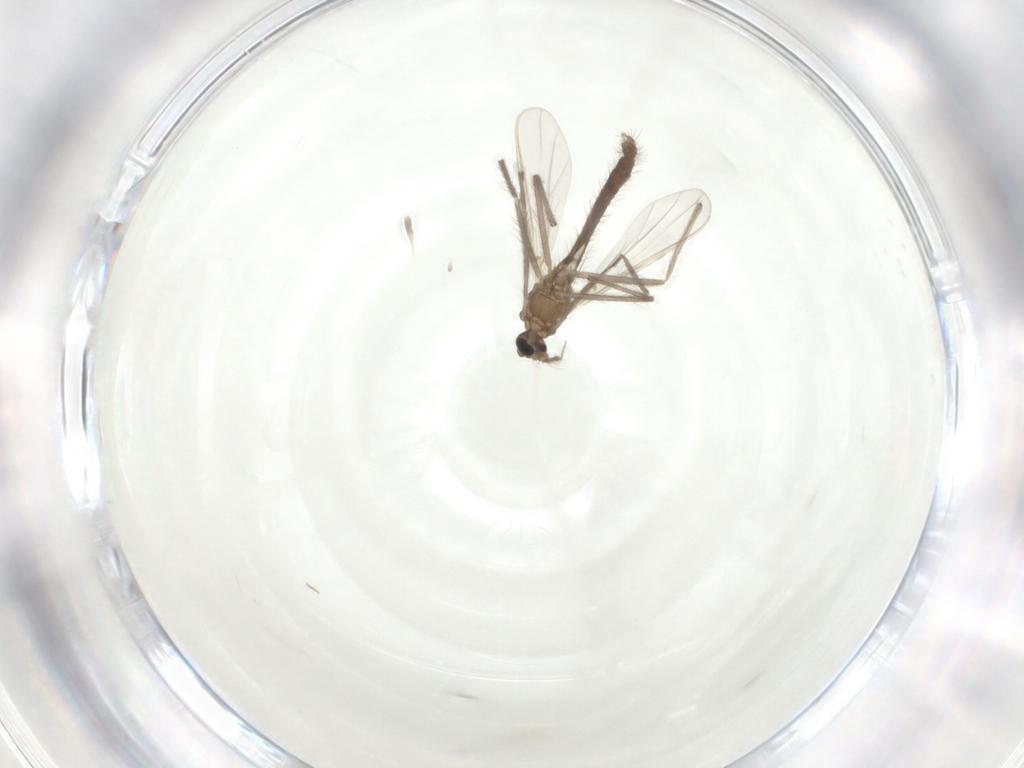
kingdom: Animalia
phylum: Arthropoda
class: Insecta
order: Diptera
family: Chironomidae
